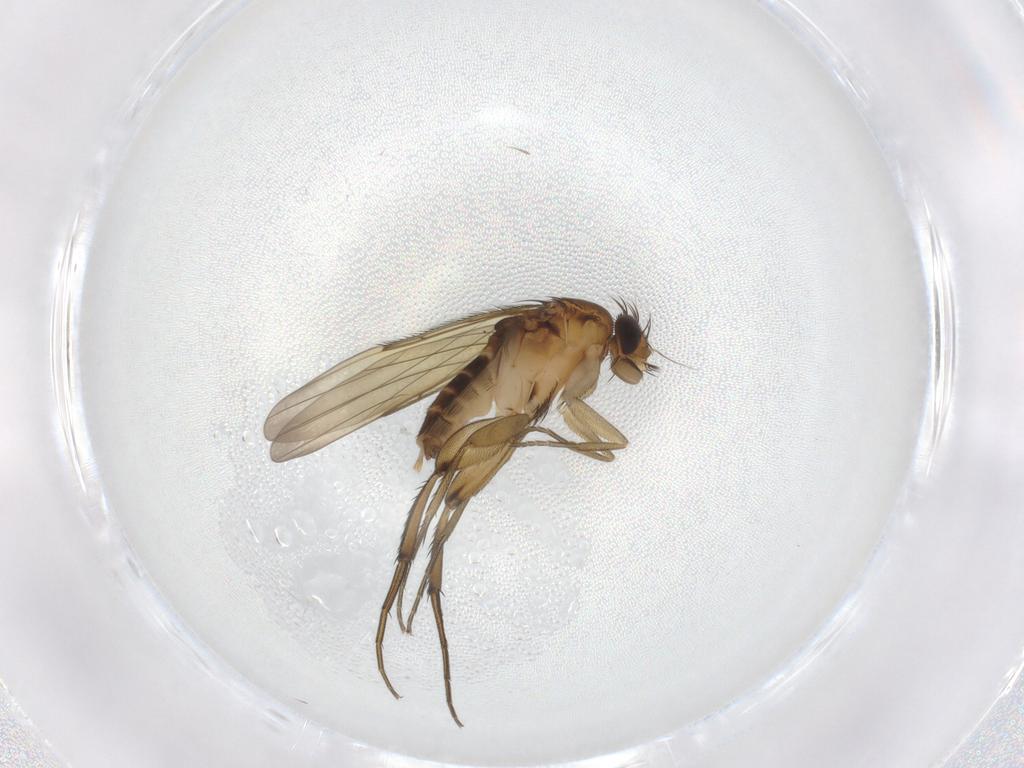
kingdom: Animalia
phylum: Arthropoda
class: Insecta
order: Diptera
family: Phoridae
